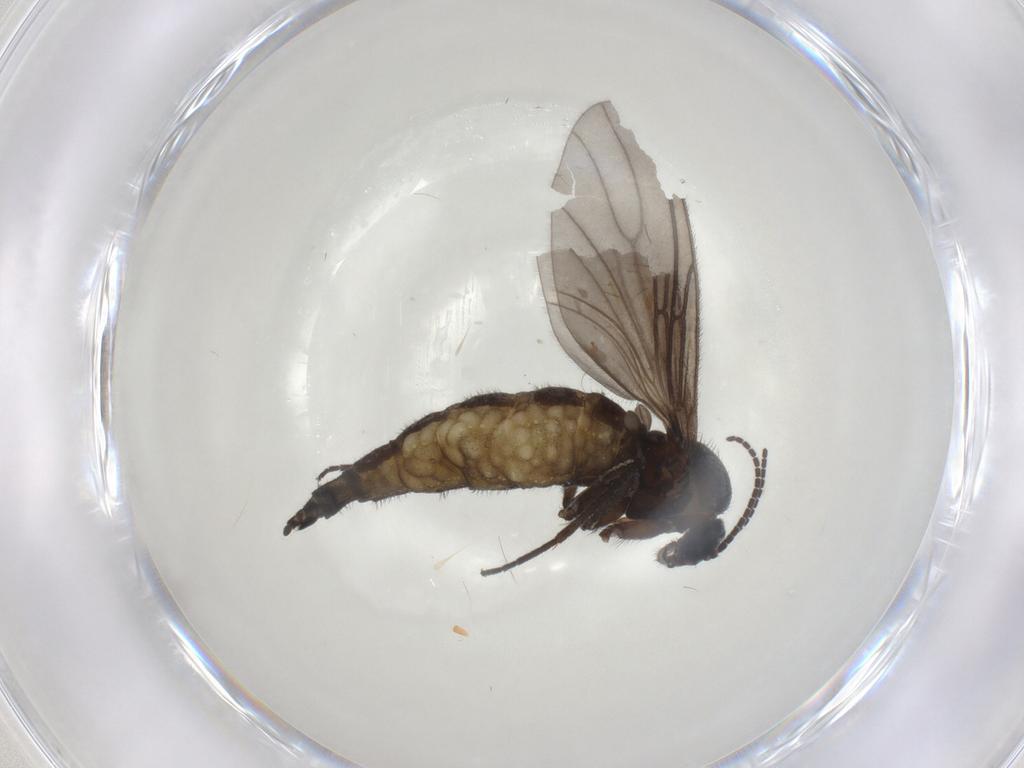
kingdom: Animalia
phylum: Arthropoda
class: Insecta
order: Diptera
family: Sciaridae
